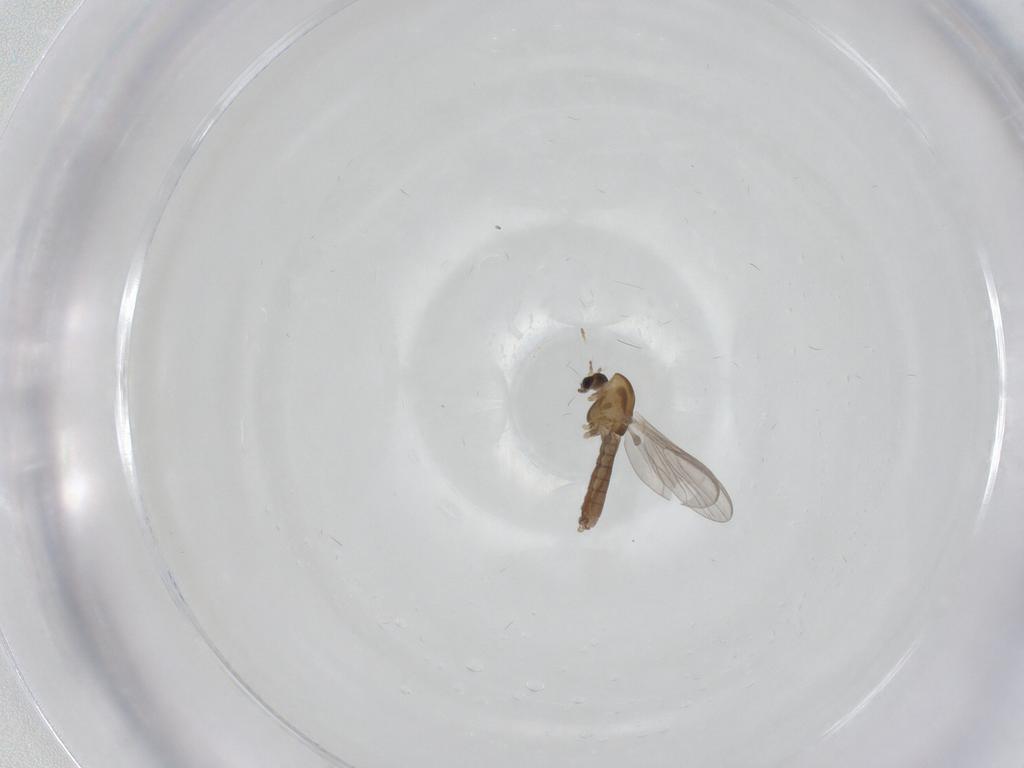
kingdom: Animalia
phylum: Arthropoda
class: Insecta
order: Diptera
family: Chironomidae
